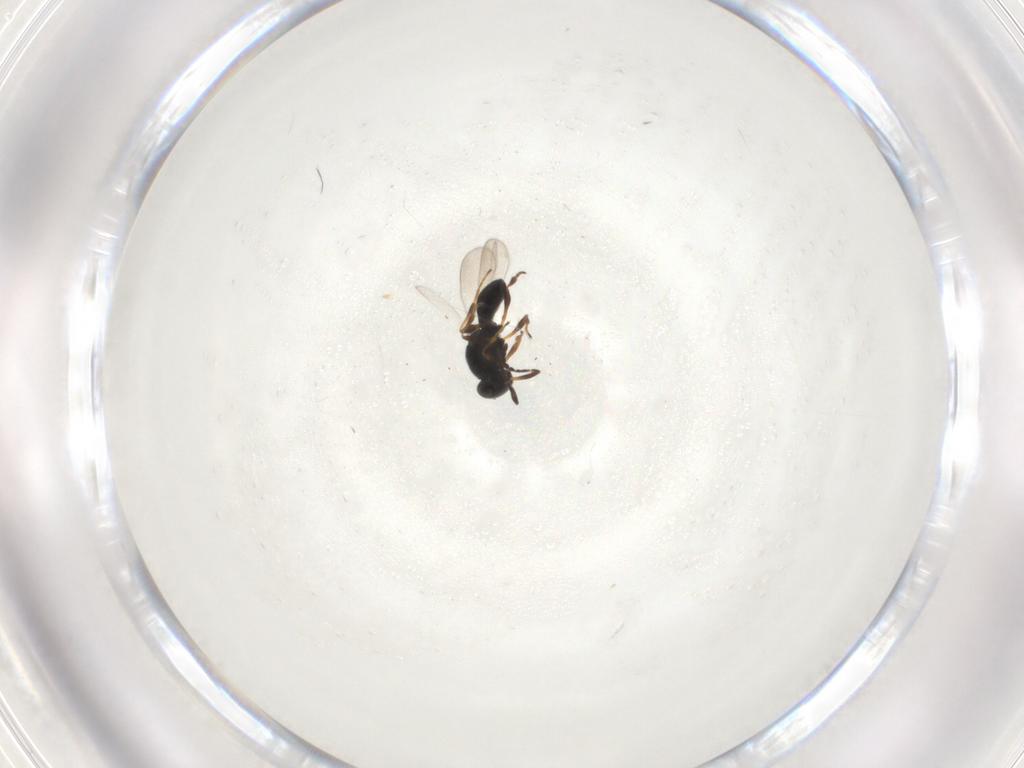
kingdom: Animalia
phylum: Arthropoda
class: Insecta
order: Hymenoptera
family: Platygastridae
